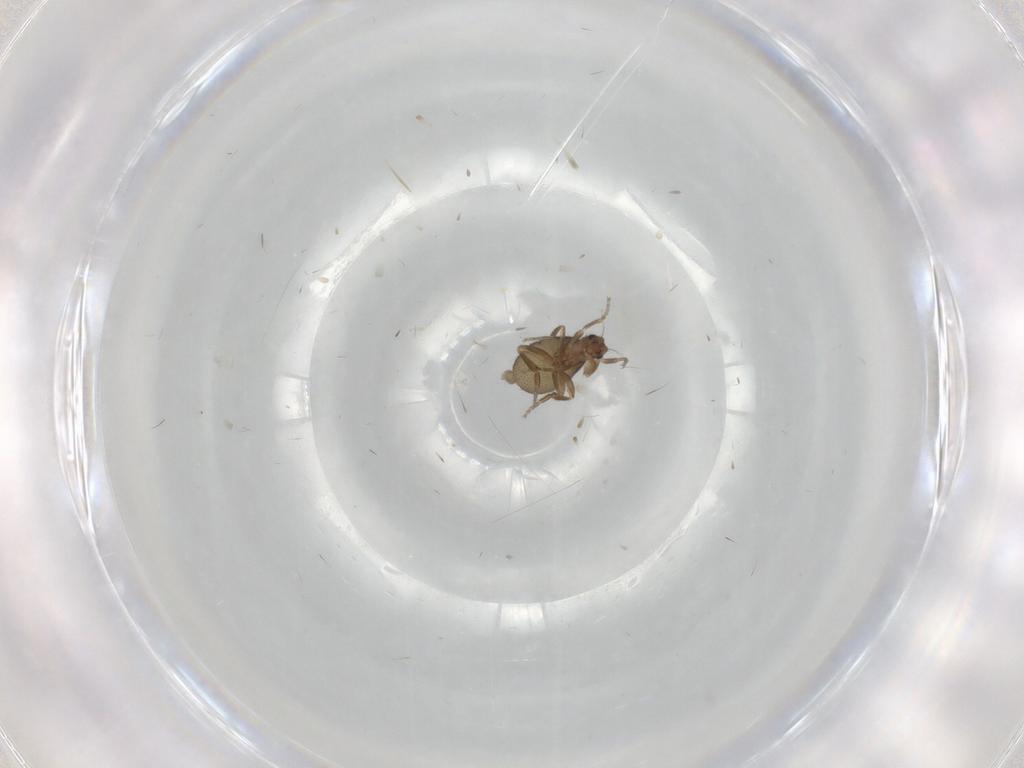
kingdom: Animalia
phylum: Arthropoda
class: Insecta
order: Diptera
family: Phoridae
